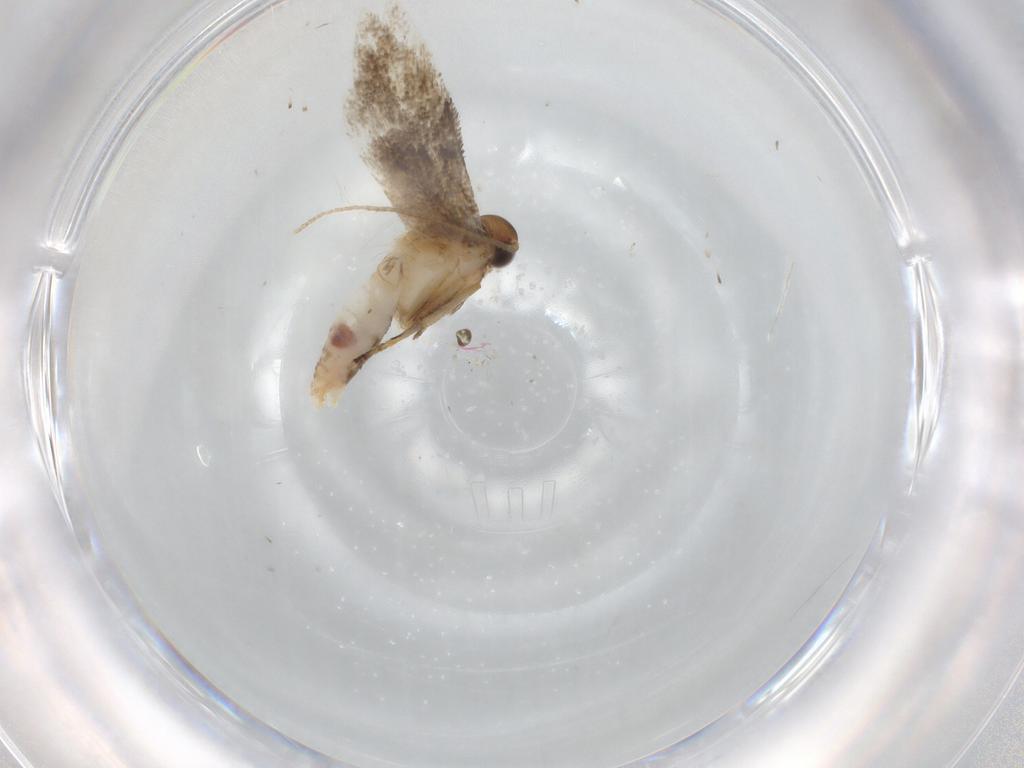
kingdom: Animalia
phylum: Arthropoda
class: Insecta
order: Lepidoptera
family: Gelechiidae
